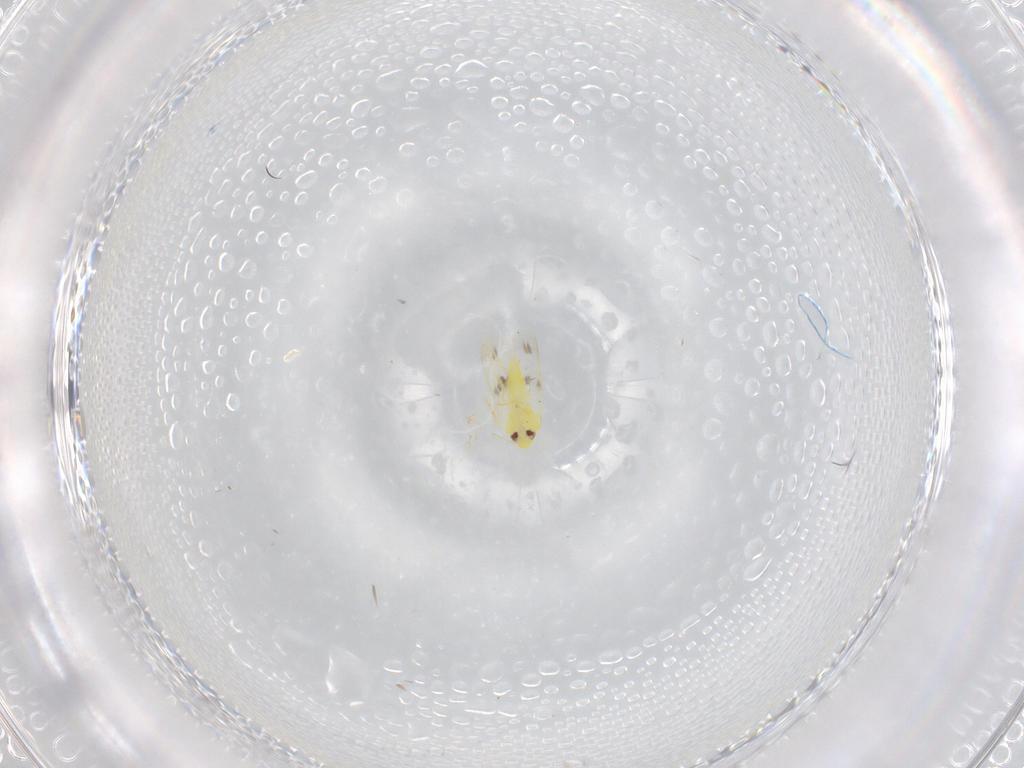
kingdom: Animalia
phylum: Arthropoda
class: Insecta
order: Hemiptera
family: Aleyrodidae
